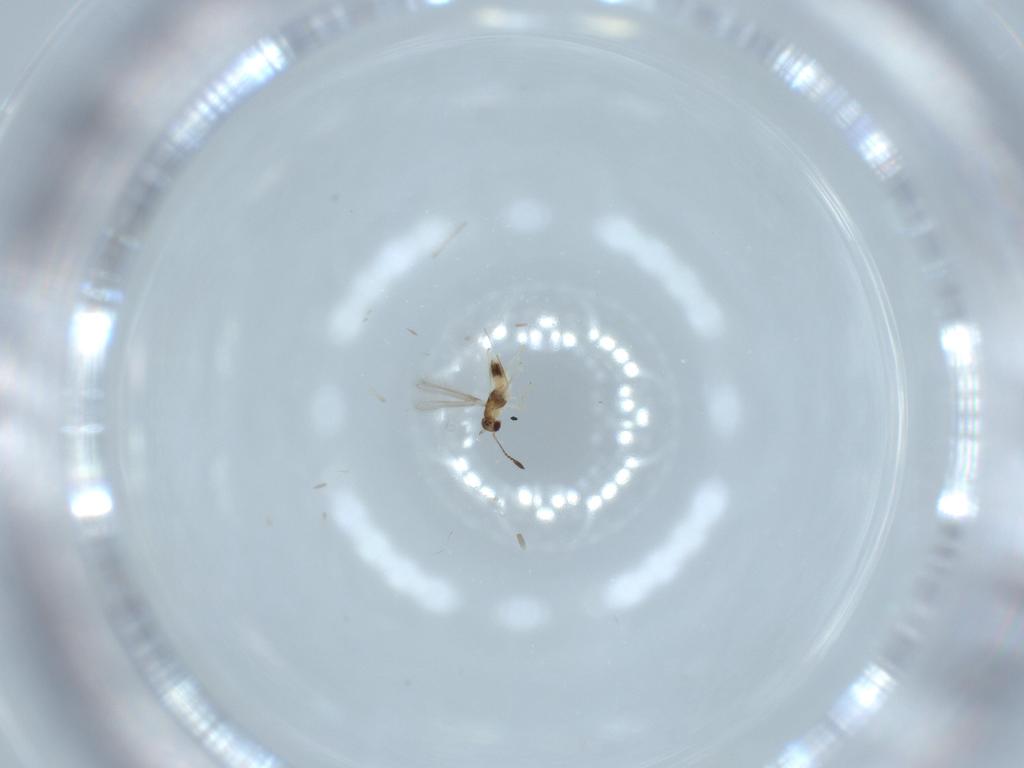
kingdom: Animalia
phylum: Arthropoda
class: Insecta
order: Hymenoptera
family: Mymaridae
